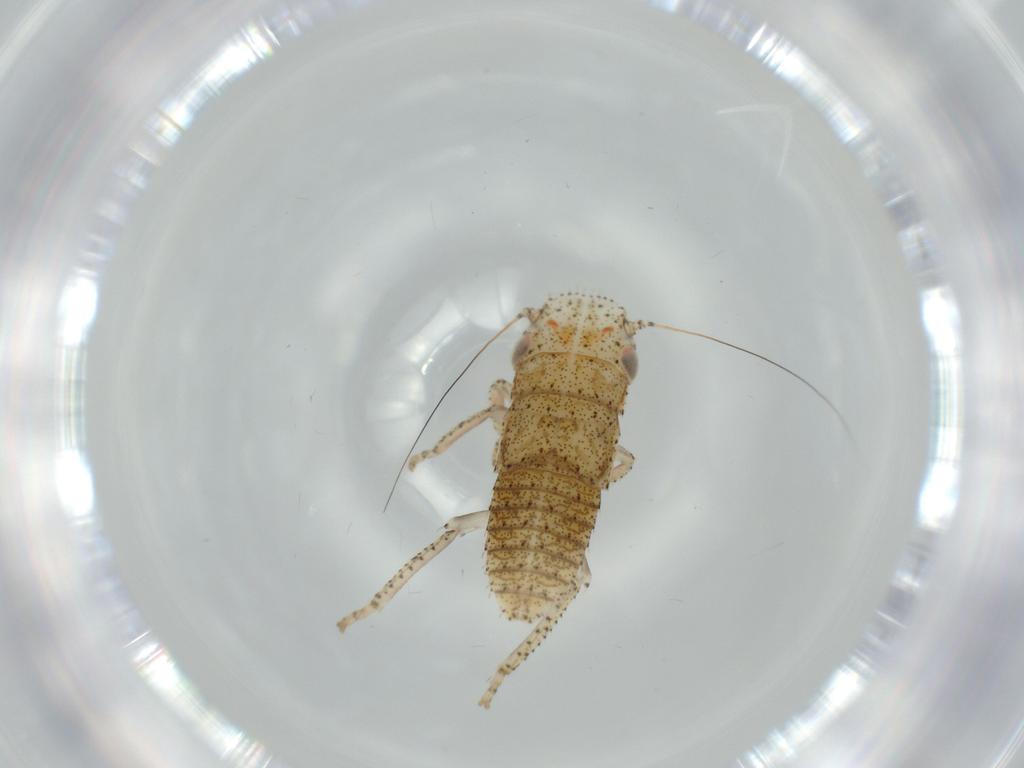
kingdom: Animalia
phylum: Arthropoda
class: Insecta
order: Hemiptera
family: Cicadellidae
